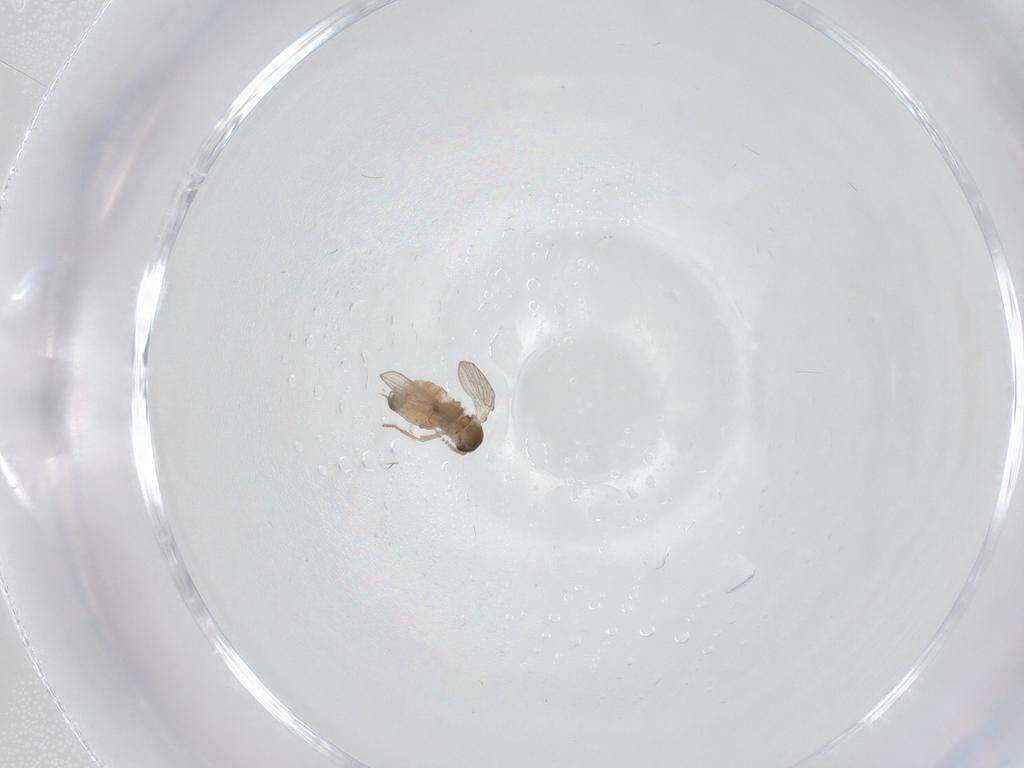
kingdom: Animalia
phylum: Arthropoda
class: Insecta
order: Diptera
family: Psychodidae
